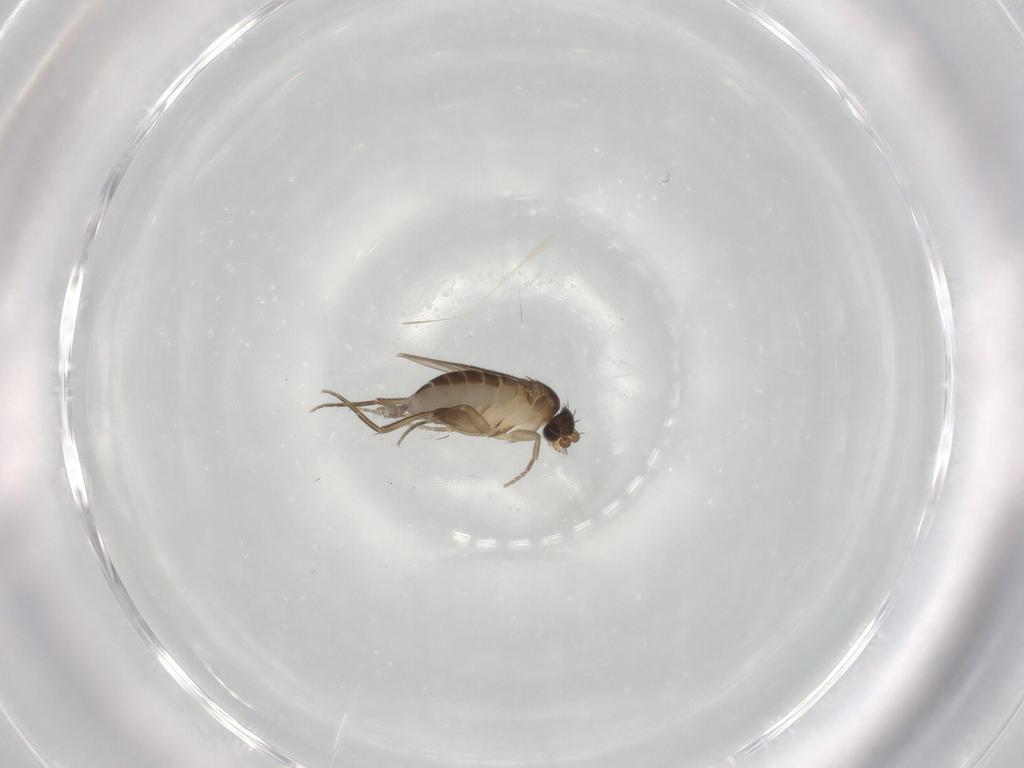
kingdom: Animalia
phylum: Arthropoda
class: Insecta
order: Diptera
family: Phoridae
